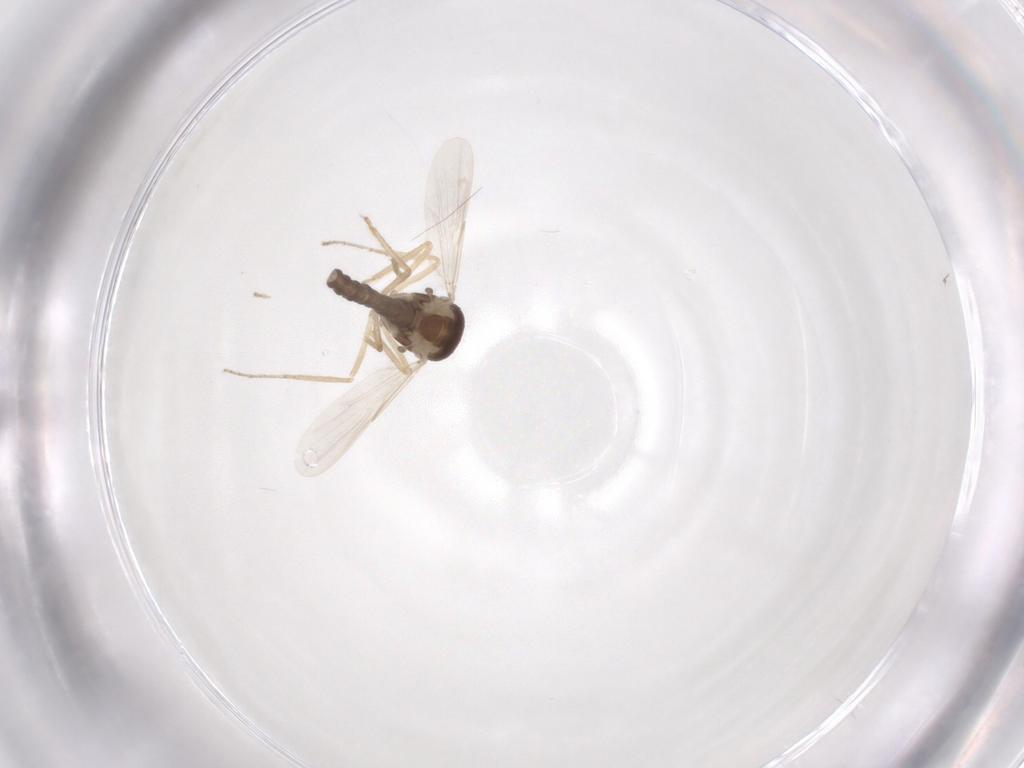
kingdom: Animalia
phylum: Arthropoda
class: Insecta
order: Diptera
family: Ceratopogonidae
